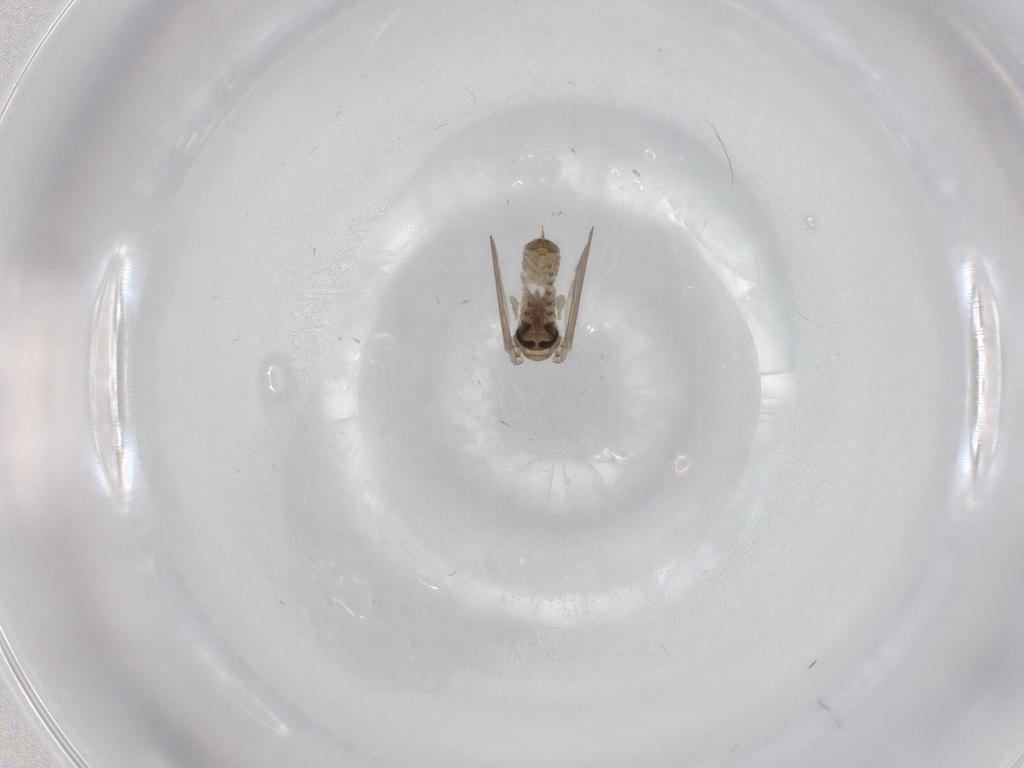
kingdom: Animalia
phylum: Arthropoda
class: Insecta
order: Diptera
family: Psychodidae
